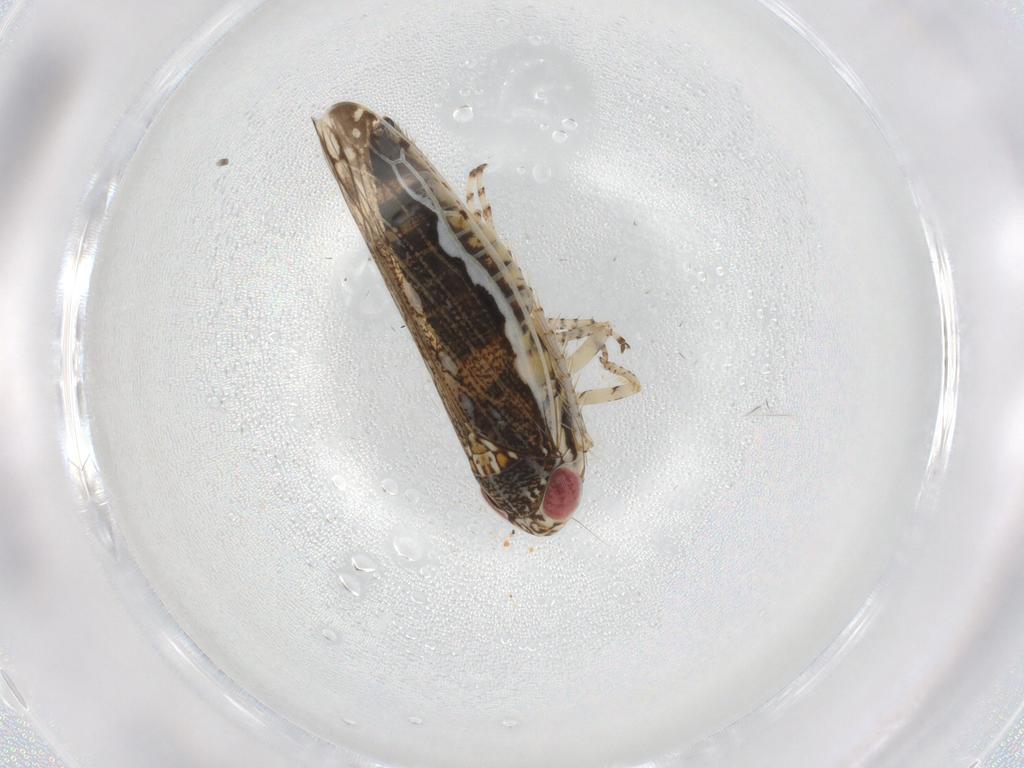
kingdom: Animalia
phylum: Arthropoda
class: Insecta
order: Hemiptera
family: Cicadellidae
